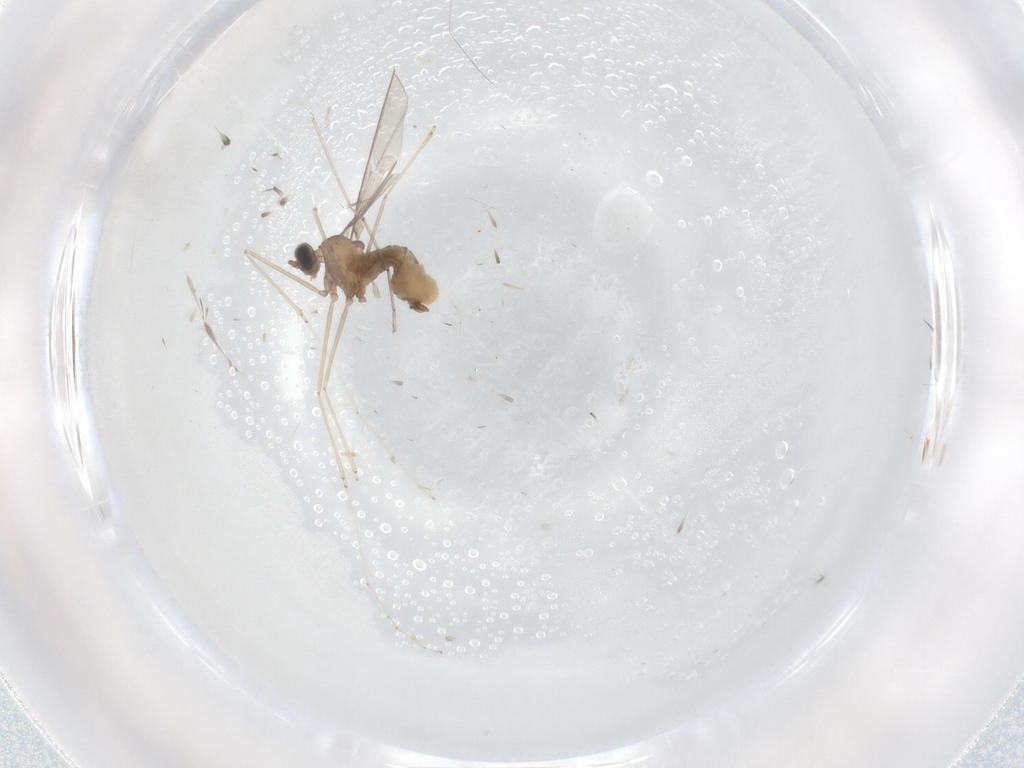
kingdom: Animalia
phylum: Arthropoda
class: Insecta
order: Diptera
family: Cecidomyiidae
